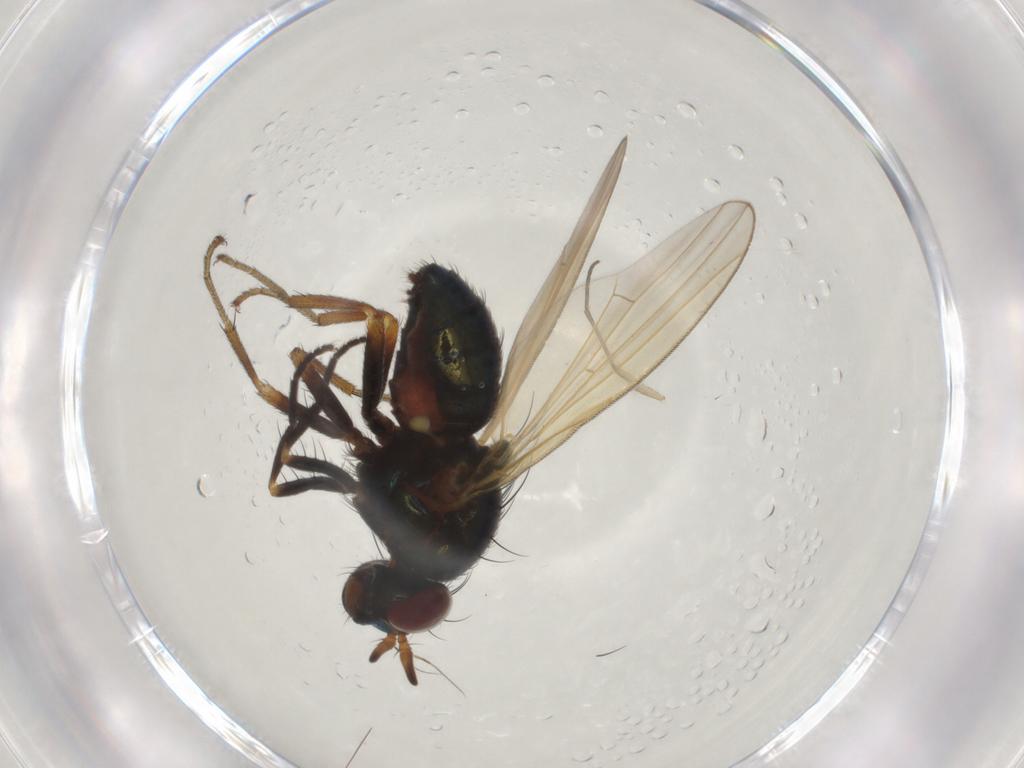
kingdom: Animalia
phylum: Arthropoda
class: Insecta
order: Diptera
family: Lauxaniidae
